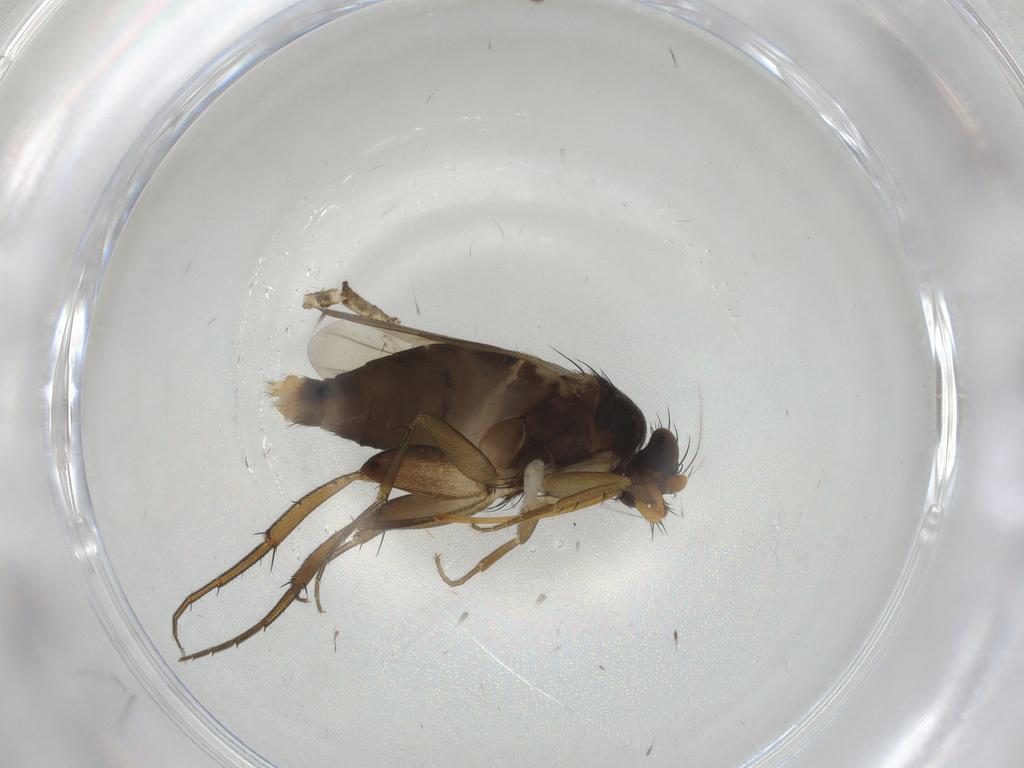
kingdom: Animalia
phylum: Arthropoda
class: Insecta
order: Diptera
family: Phoridae
